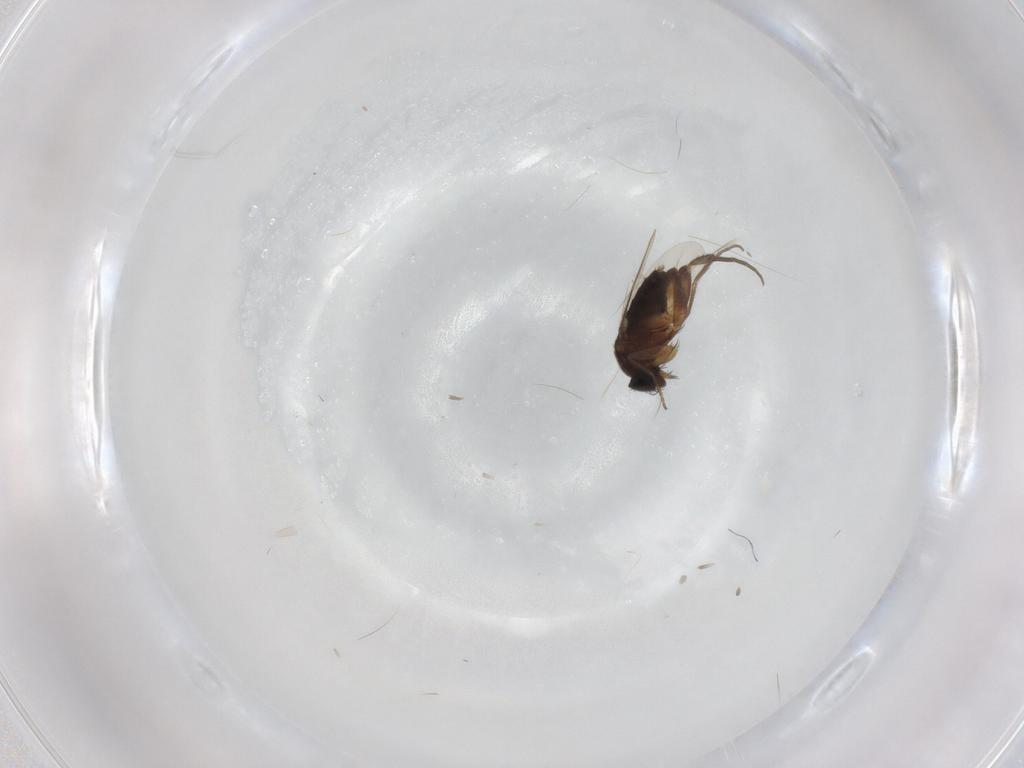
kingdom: Animalia
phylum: Arthropoda
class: Insecta
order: Diptera
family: Phoridae
